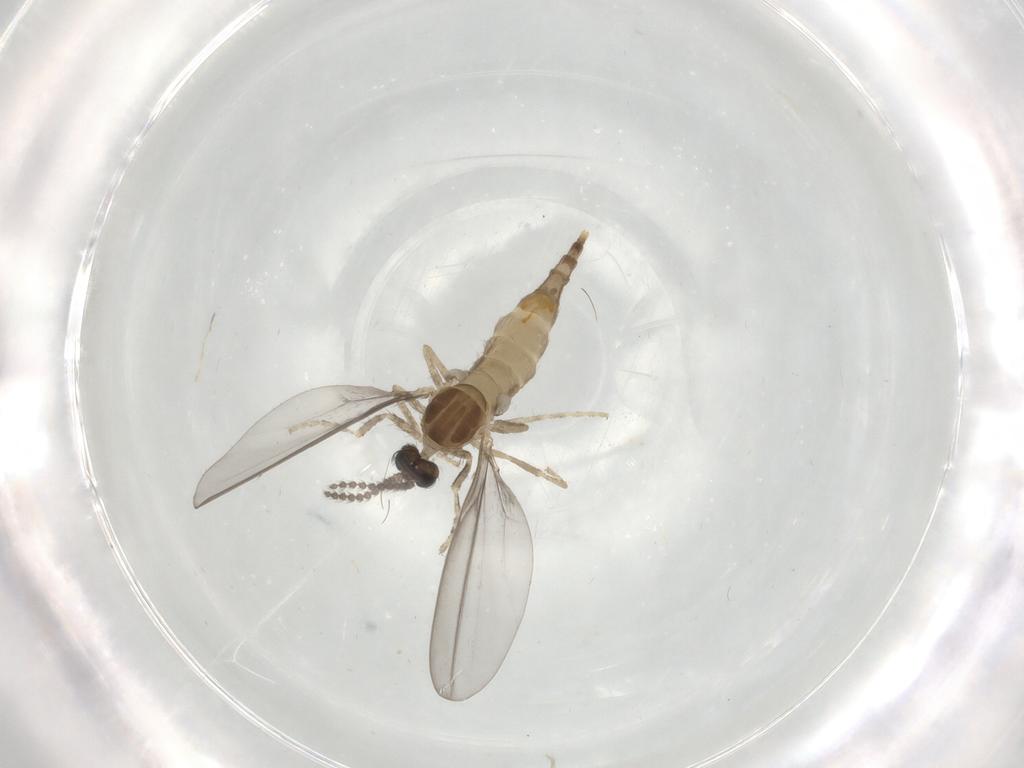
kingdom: Animalia
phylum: Arthropoda
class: Insecta
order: Diptera
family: Cecidomyiidae
